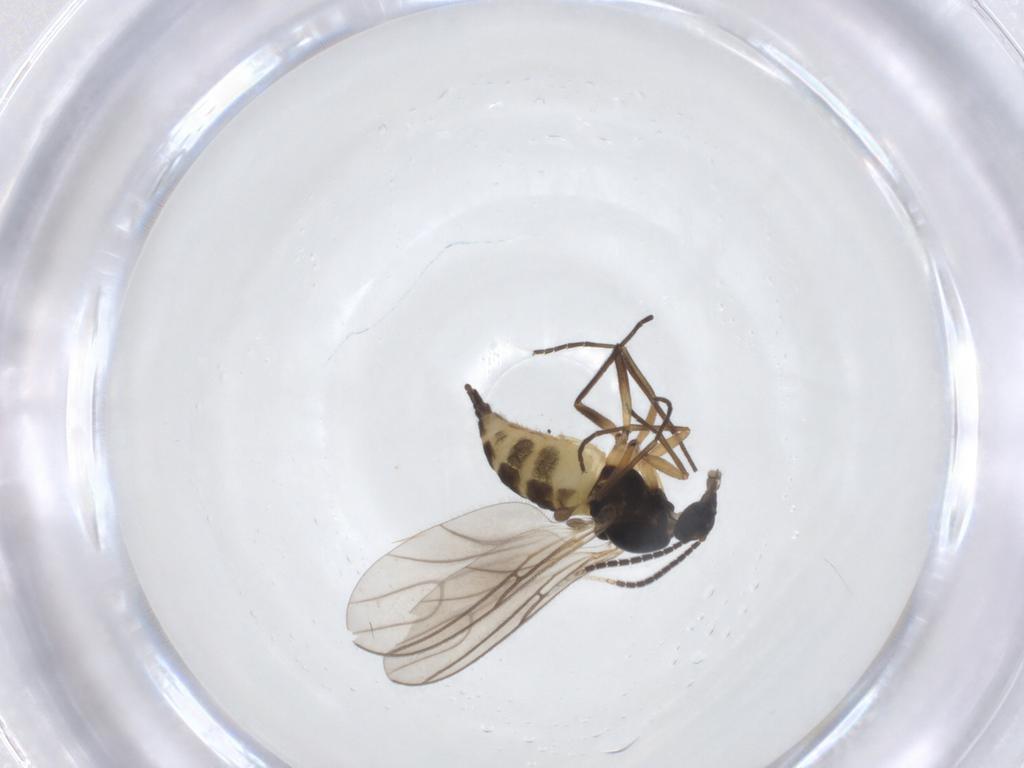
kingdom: Animalia
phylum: Arthropoda
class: Insecta
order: Diptera
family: Sciaridae
